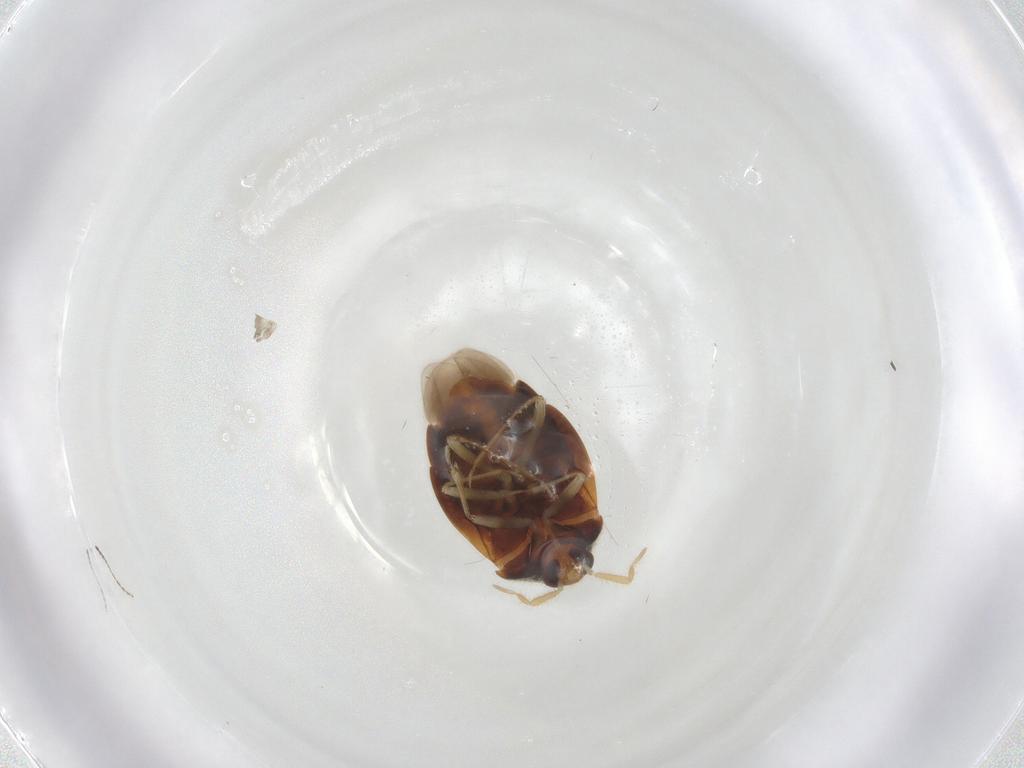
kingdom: Animalia
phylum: Arthropoda
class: Insecta
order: Hemiptera
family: Anthocoridae
